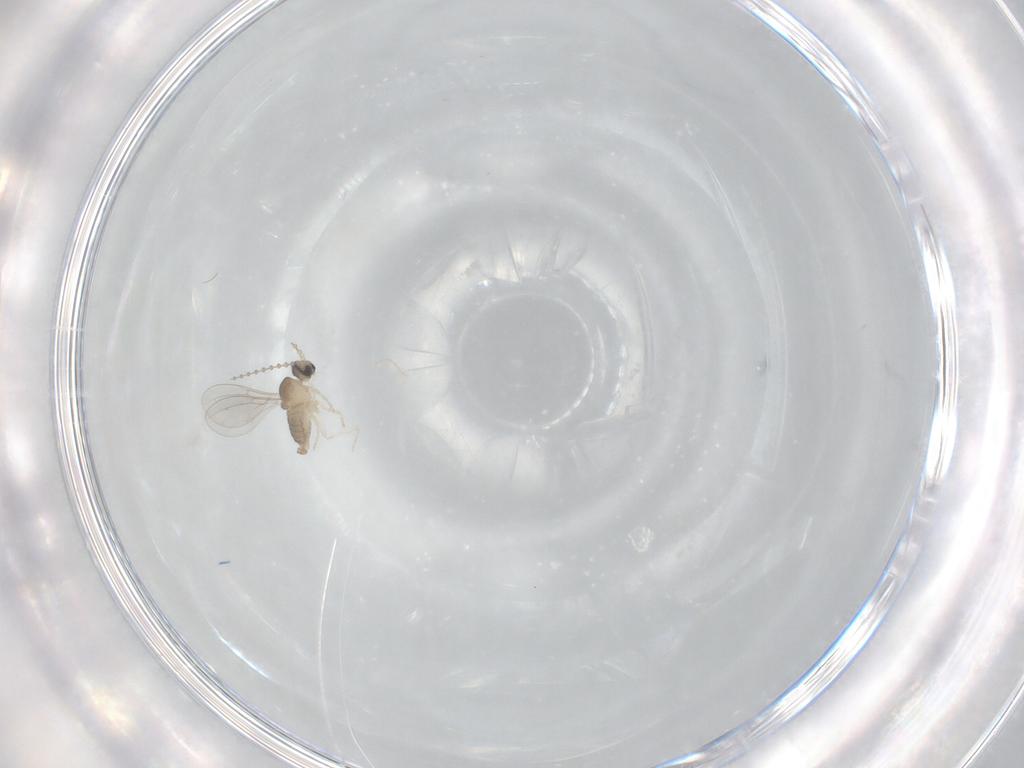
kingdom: Animalia
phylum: Arthropoda
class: Insecta
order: Diptera
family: Cecidomyiidae
